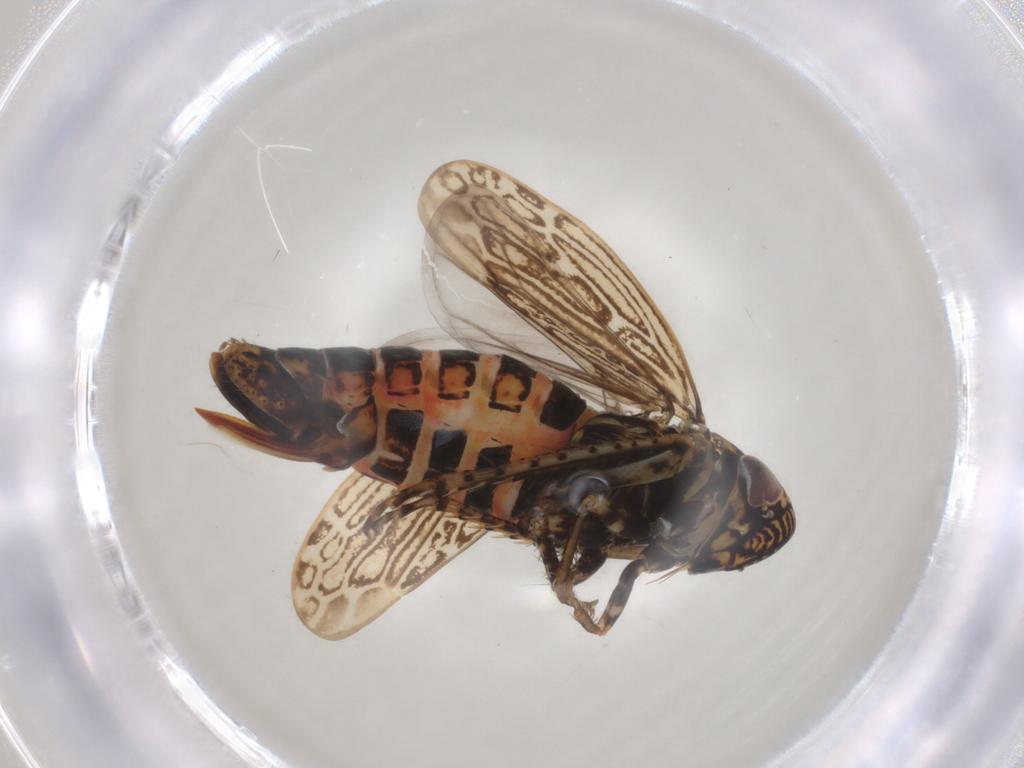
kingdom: Animalia
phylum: Arthropoda
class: Insecta
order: Hemiptera
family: Cicadellidae
